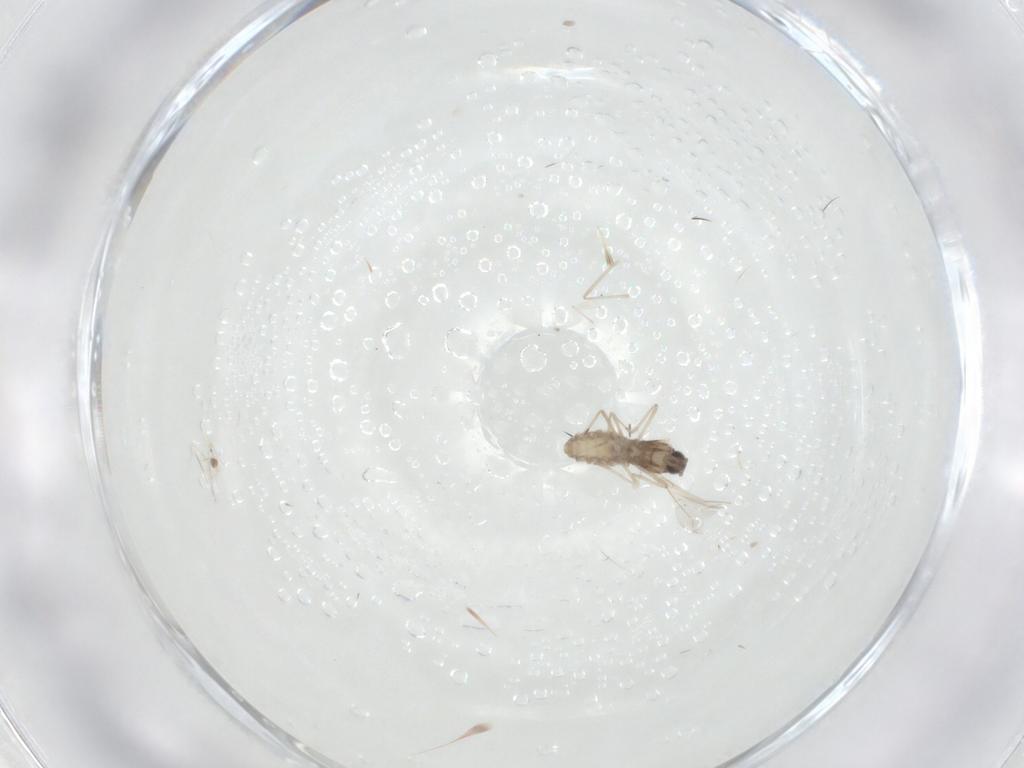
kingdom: Animalia
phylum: Arthropoda
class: Insecta
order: Diptera
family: Cecidomyiidae
